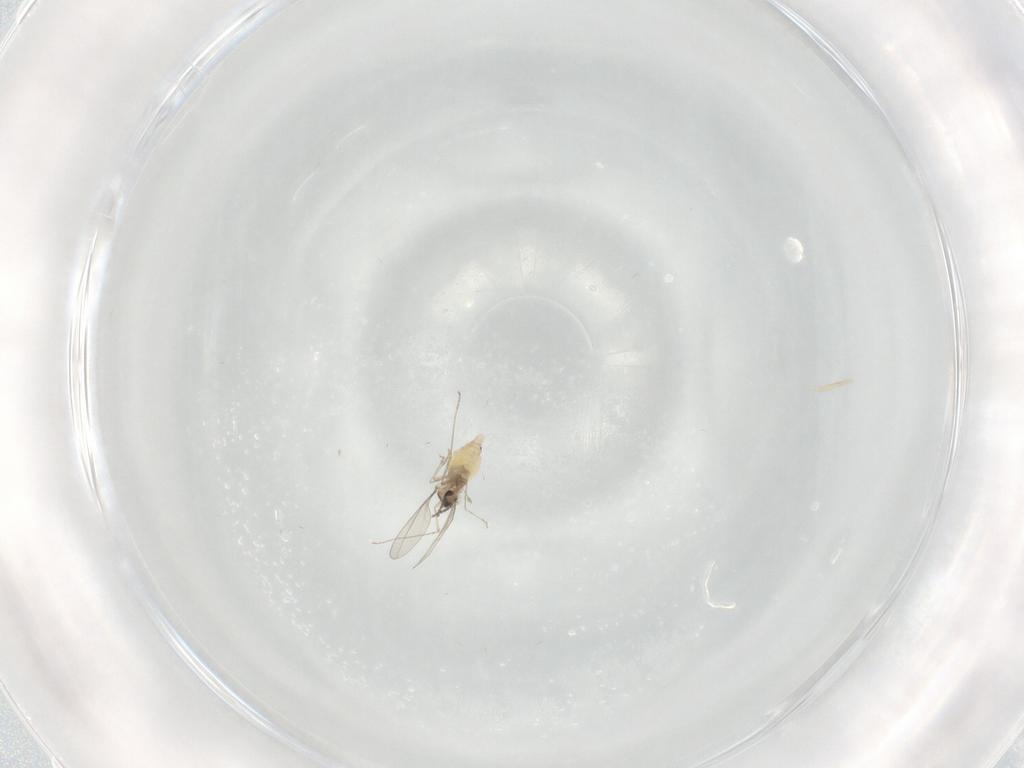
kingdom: Animalia
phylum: Arthropoda
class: Insecta
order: Diptera
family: Cecidomyiidae
